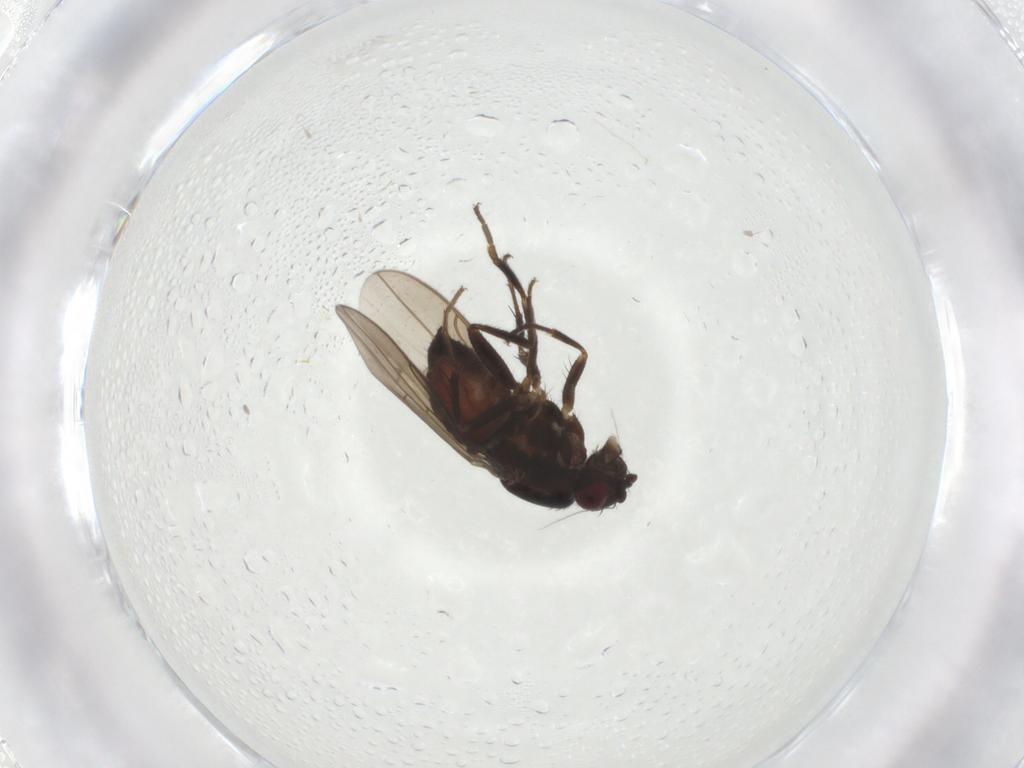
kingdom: Animalia
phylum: Arthropoda
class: Insecta
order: Diptera
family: Sphaeroceridae
